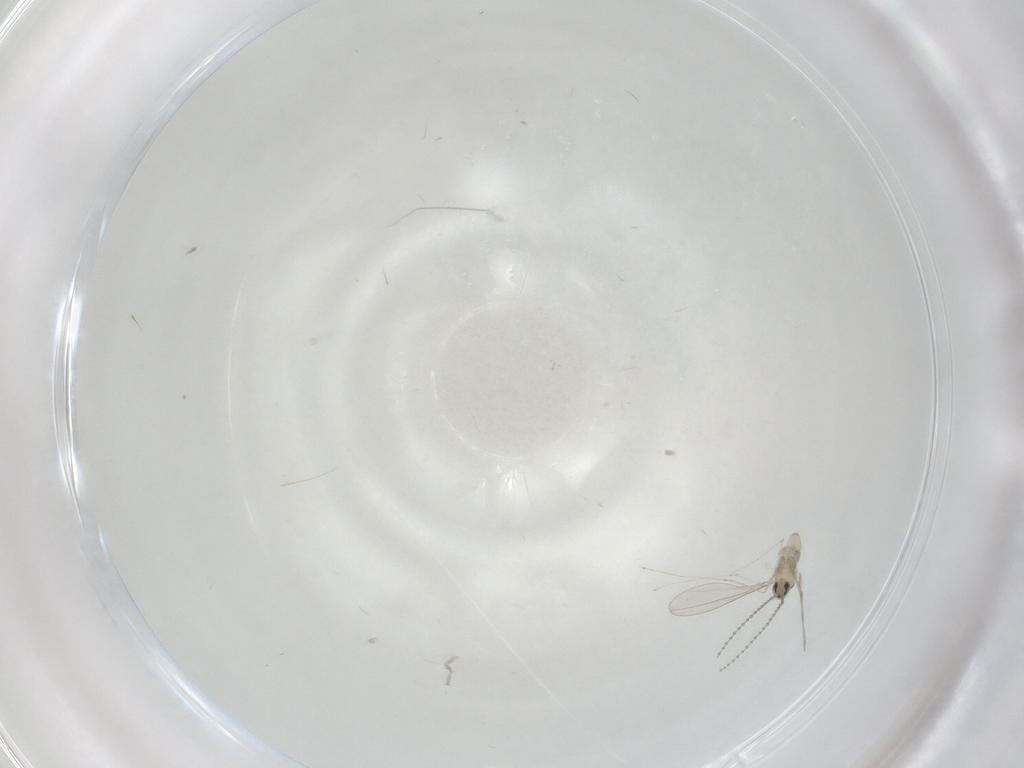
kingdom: Animalia
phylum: Arthropoda
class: Insecta
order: Diptera
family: Cecidomyiidae
